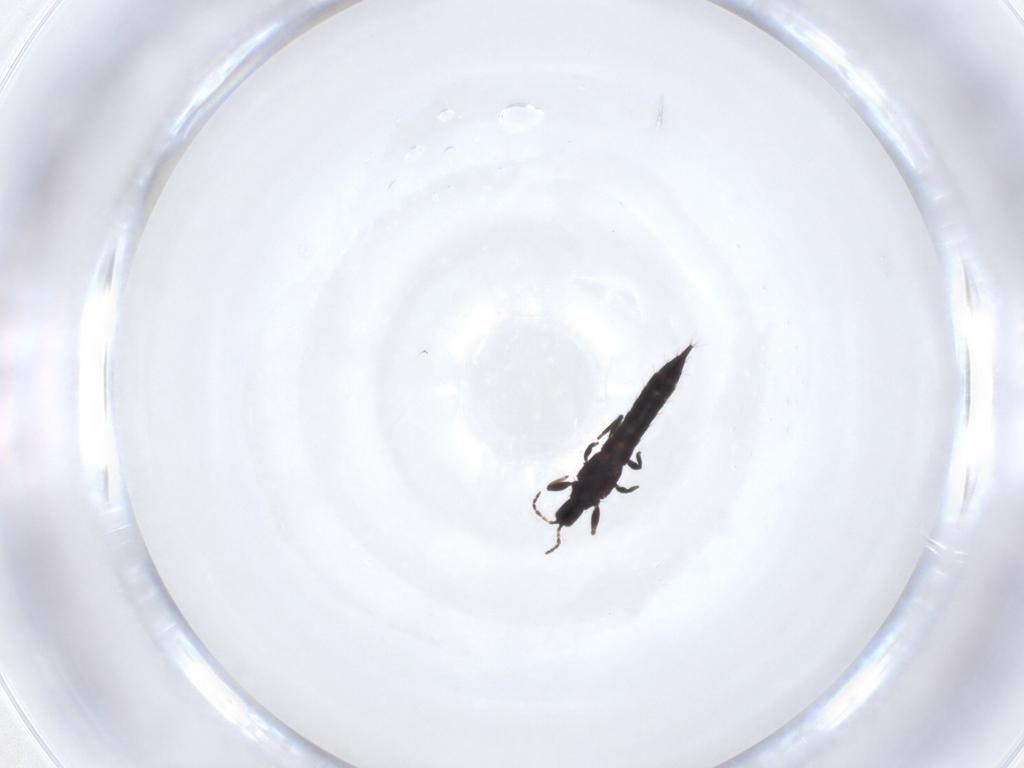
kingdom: Animalia
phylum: Arthropoda
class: Insecta
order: Thysanoptera
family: Phlaeothripidae
